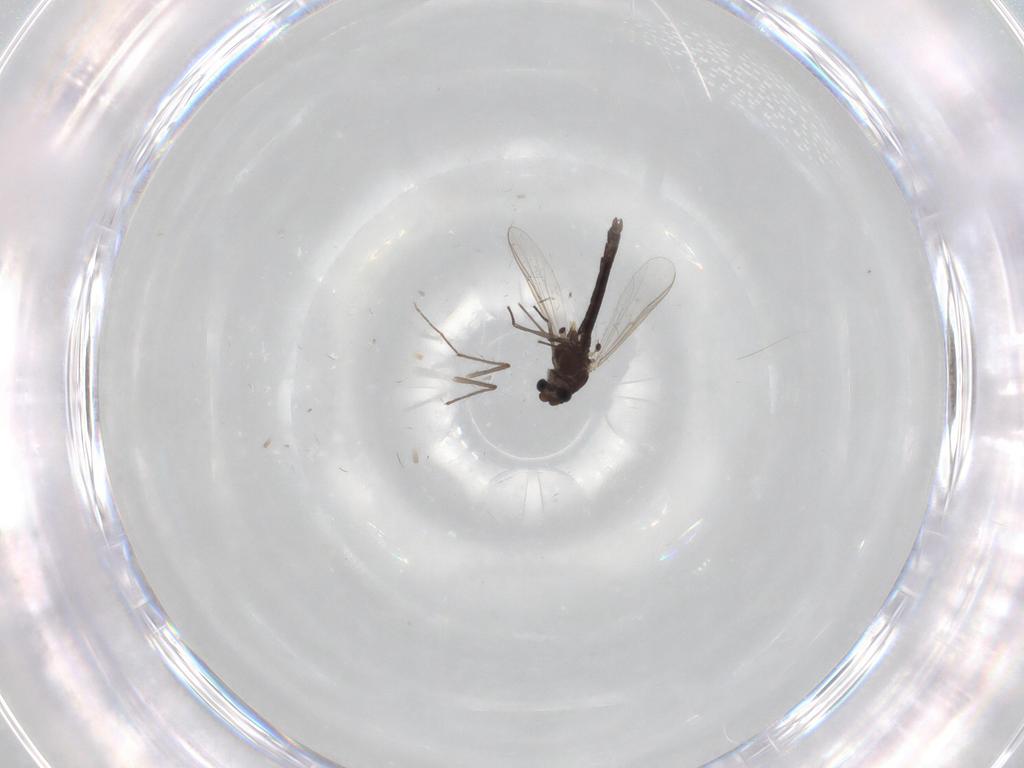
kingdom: Animalia
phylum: Arthropoda
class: Insecta
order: Diptera
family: Chironomidae
